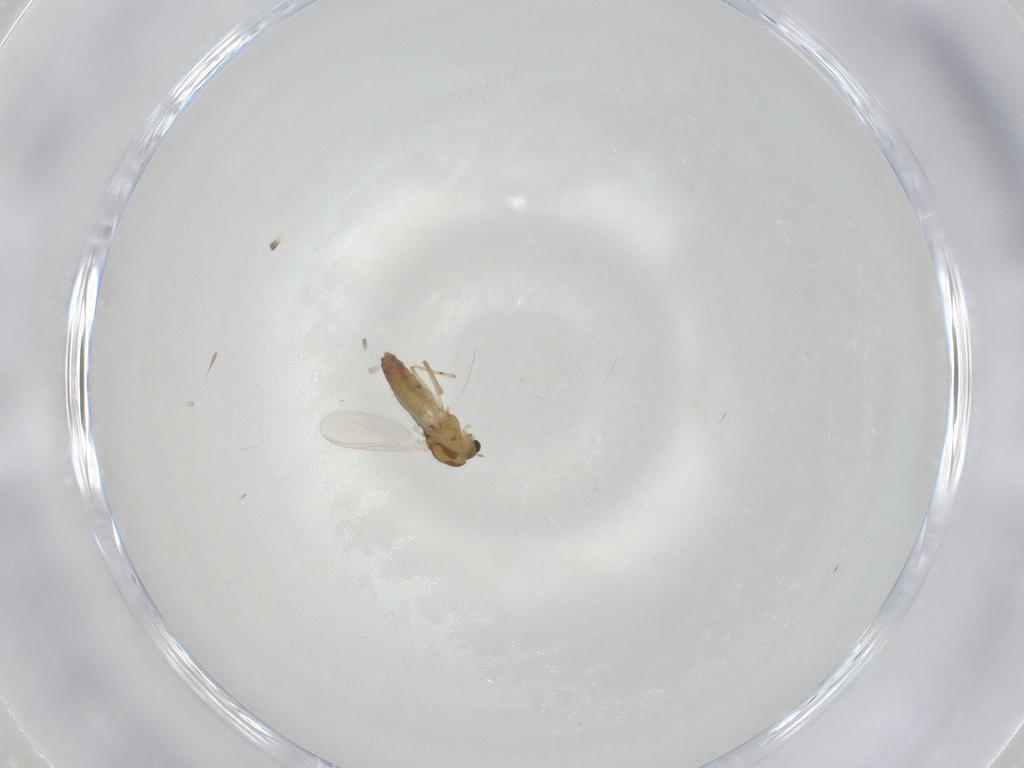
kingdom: Animalia
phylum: Arthropoda
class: Insecta
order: Diptera
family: Chironomidae
